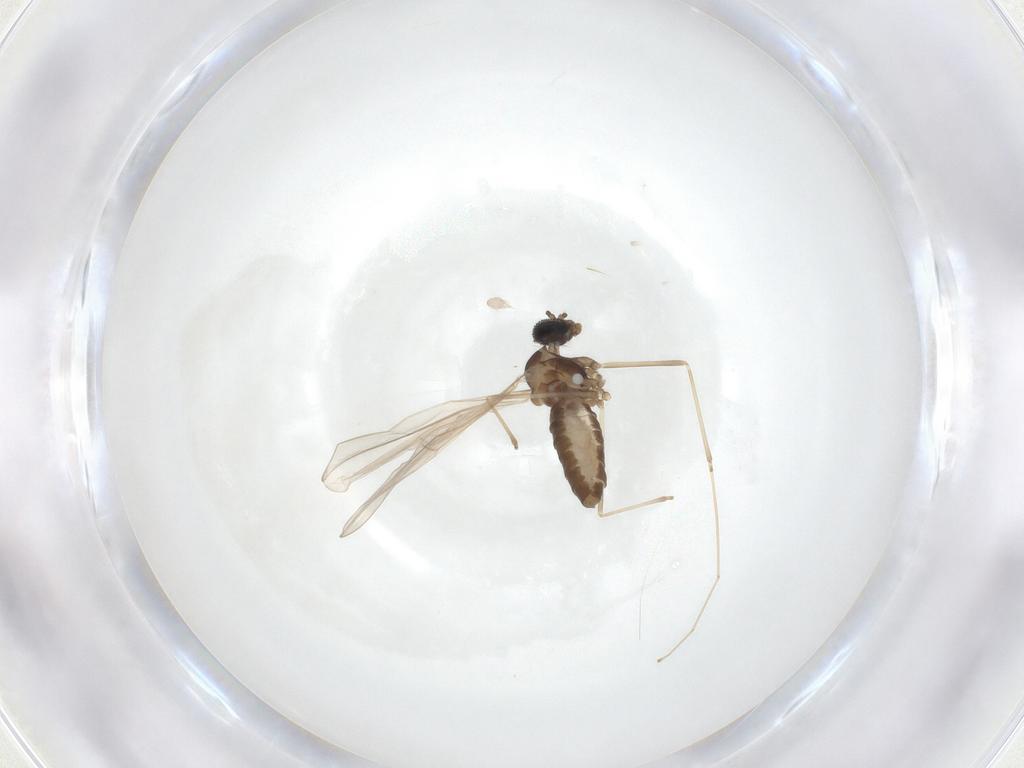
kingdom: Animalia
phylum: Arthropoda
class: Insecta
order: Diptera
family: Cecidomyiidae
